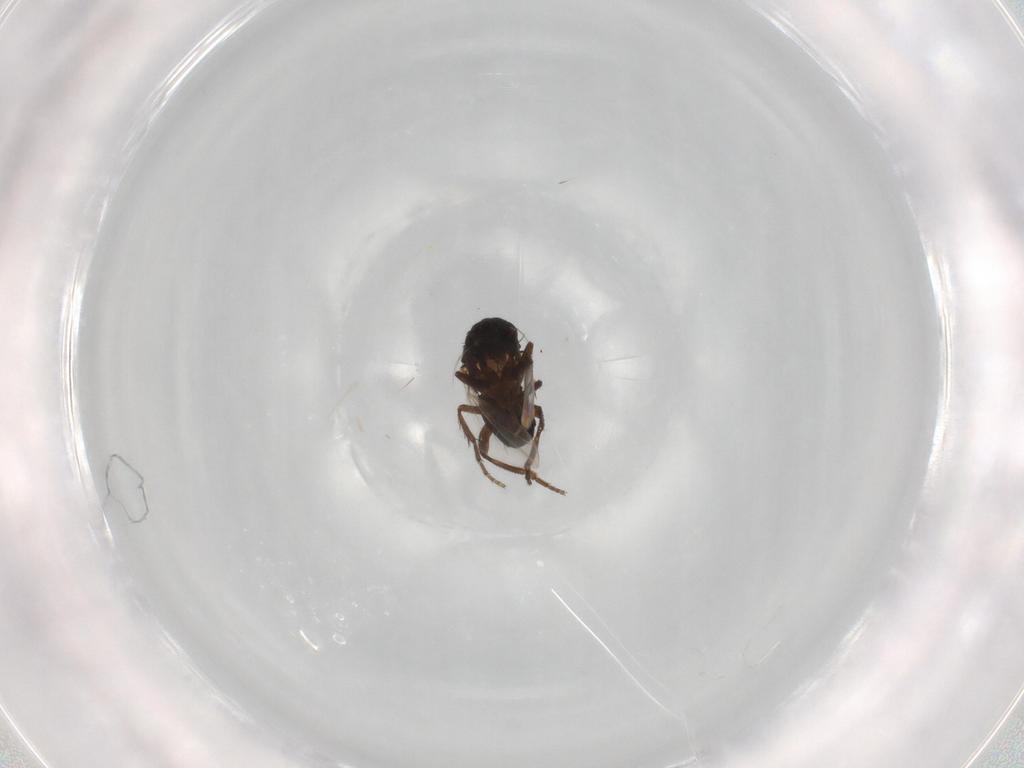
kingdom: Animalia
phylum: Arthropoda
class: Insecta
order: Diptera
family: Sphaeroceridae
